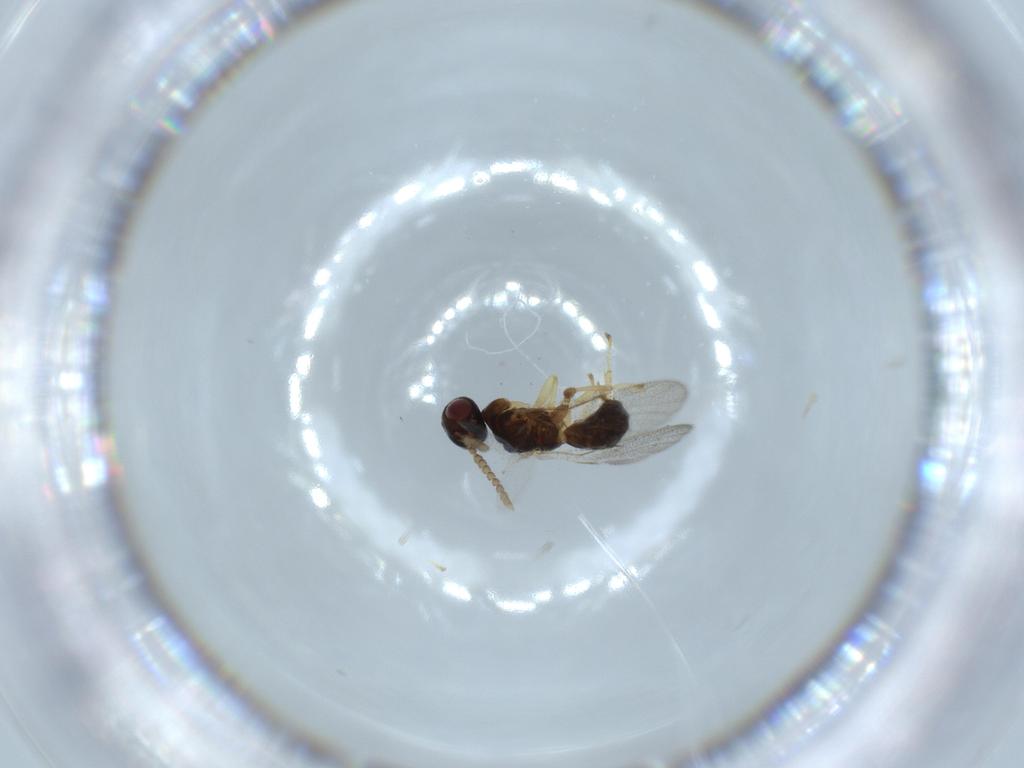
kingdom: Animalia
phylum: Arthropoda
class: Insecta
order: Hymenoptera
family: Agaonidae
